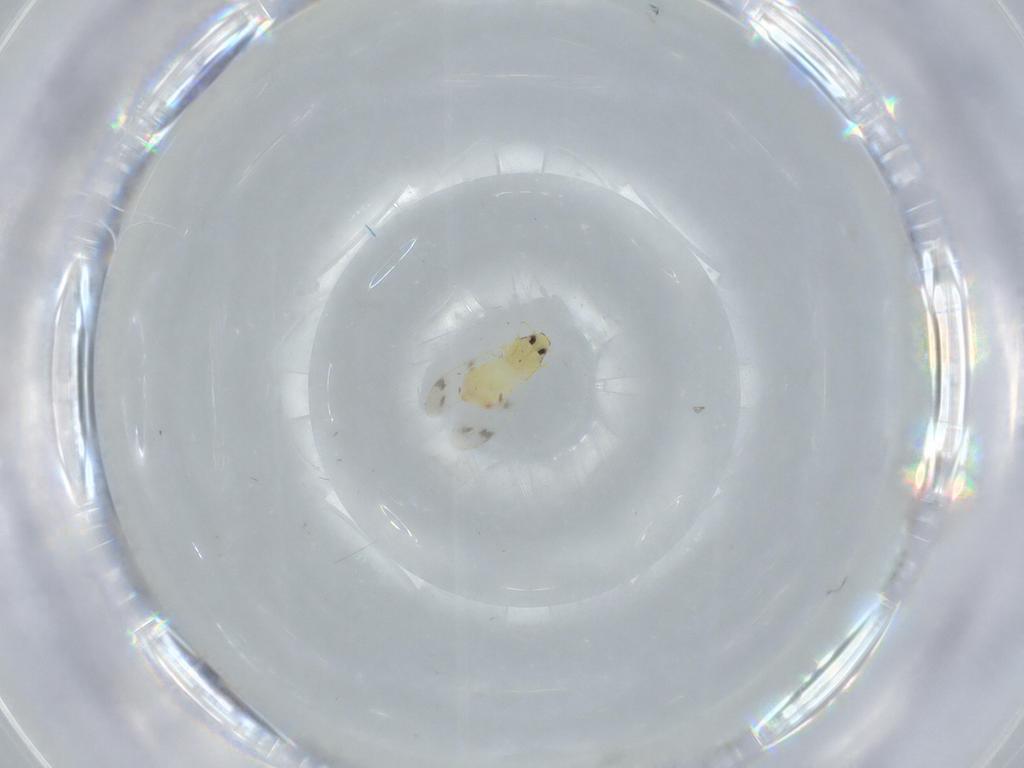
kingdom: Animalia
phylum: Arthropoda
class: Insecta
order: Hemiptera
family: Aleyrodidae
